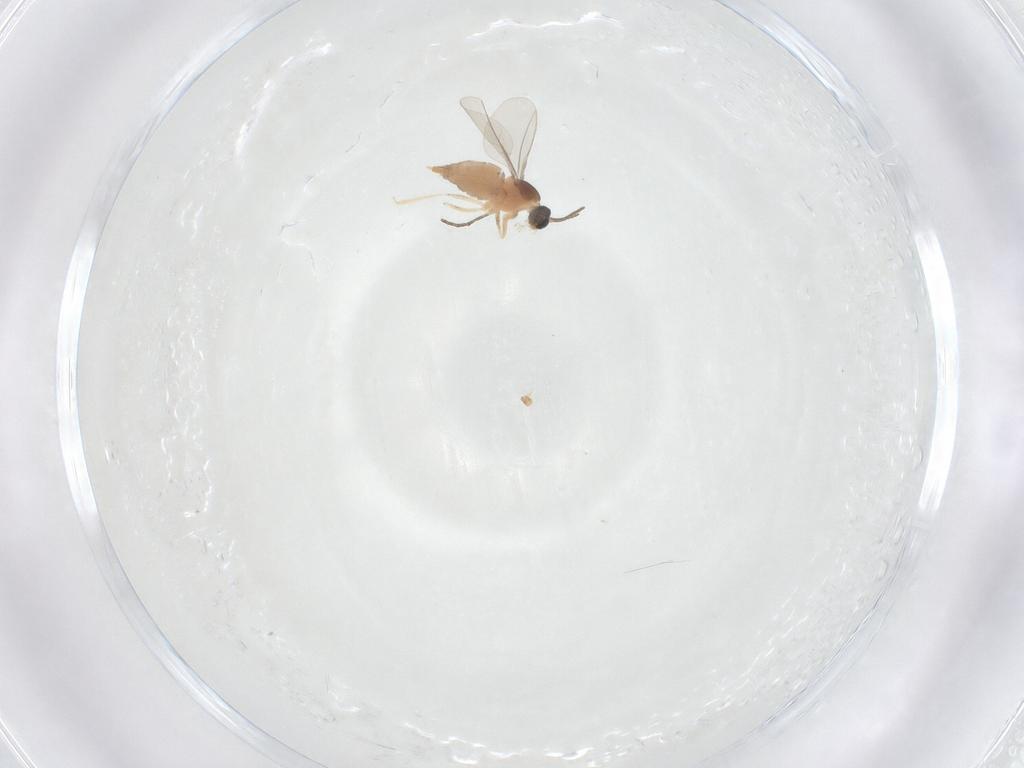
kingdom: Animalia
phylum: Arthropoda
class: Insecta
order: Diptera
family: Cecidomyiidae
